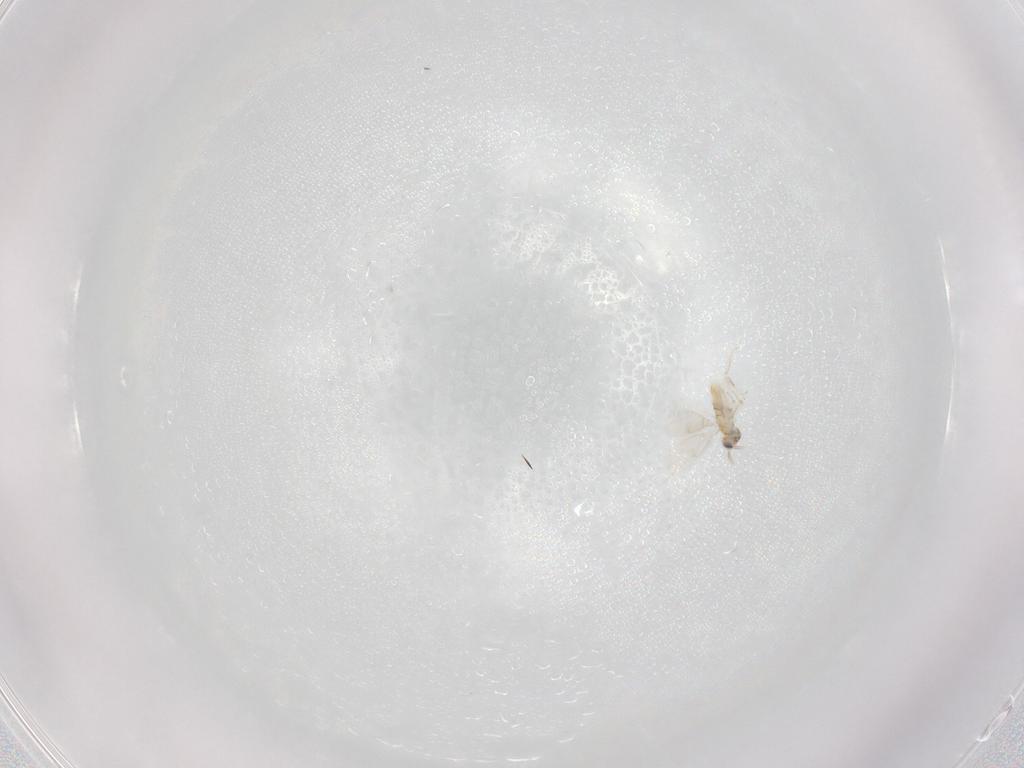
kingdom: Animalia
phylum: Arthropoda
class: Insecta
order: Hymenoptera
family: Aphelinidae
